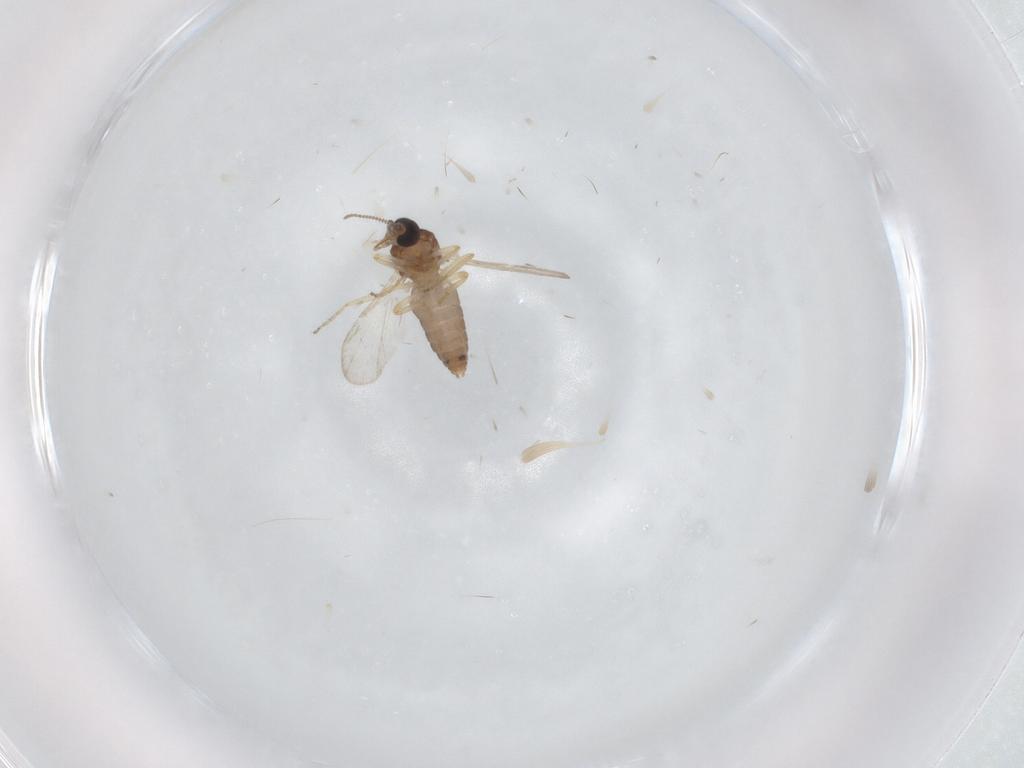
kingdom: Animalia
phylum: Arthropoda
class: Insecta
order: Diptera
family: Ceratopogonidae
